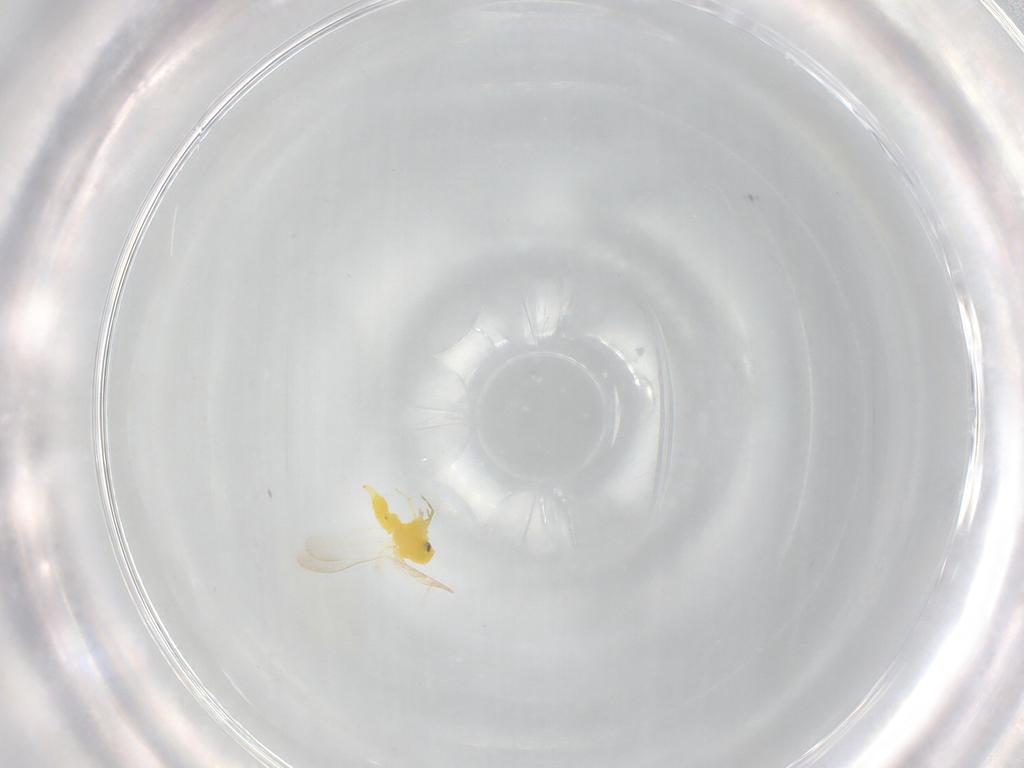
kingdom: Animalia
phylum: Arthropoda
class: Insecta
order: Hemiptera
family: Aleyrodidae
